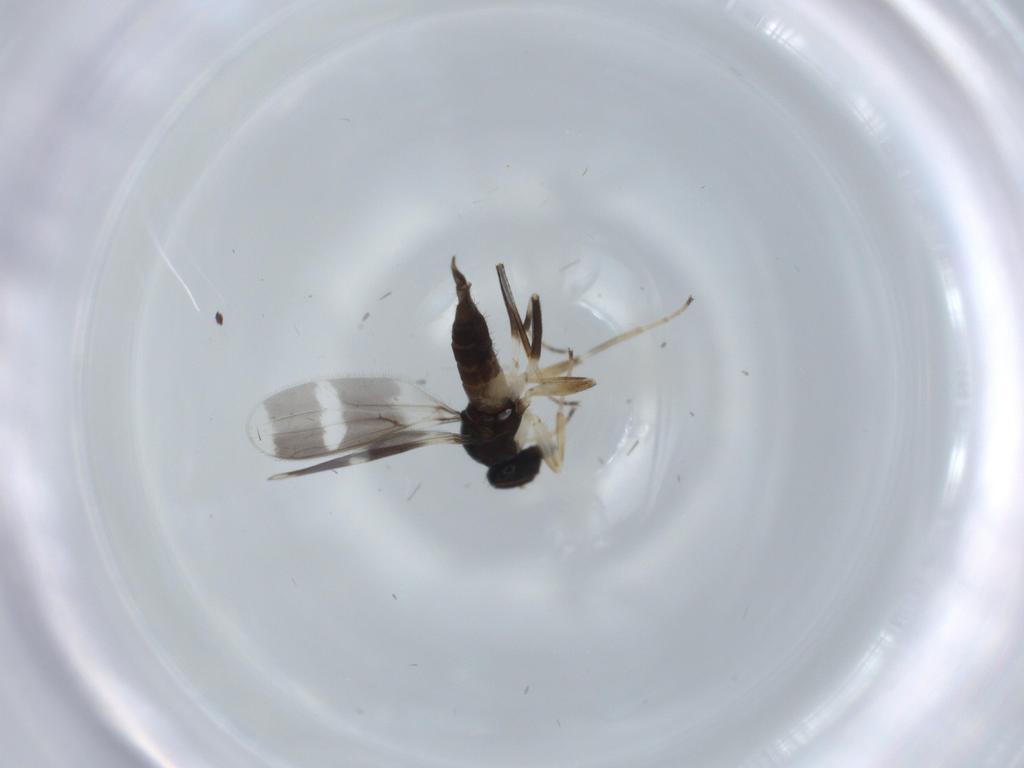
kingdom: Animalia
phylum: Arthropoda
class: Insecta
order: Diptera
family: Hybotidae
